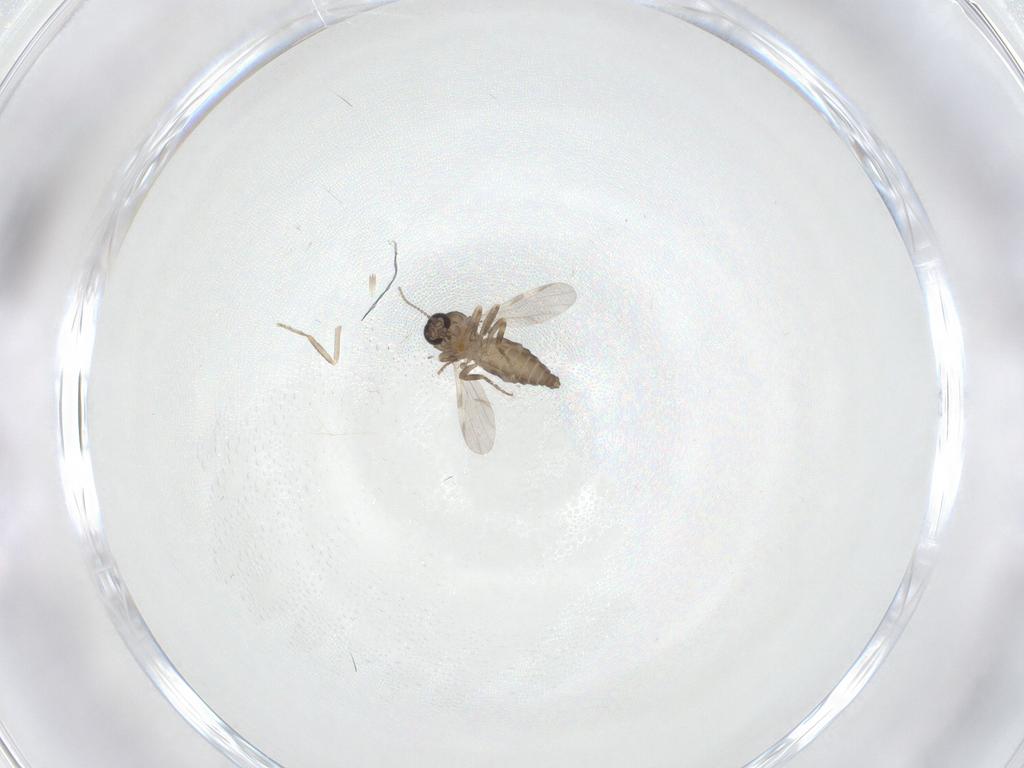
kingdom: Animalia
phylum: Arthropoda
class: Insecta
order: Diptera
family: Ceratopogonidae
